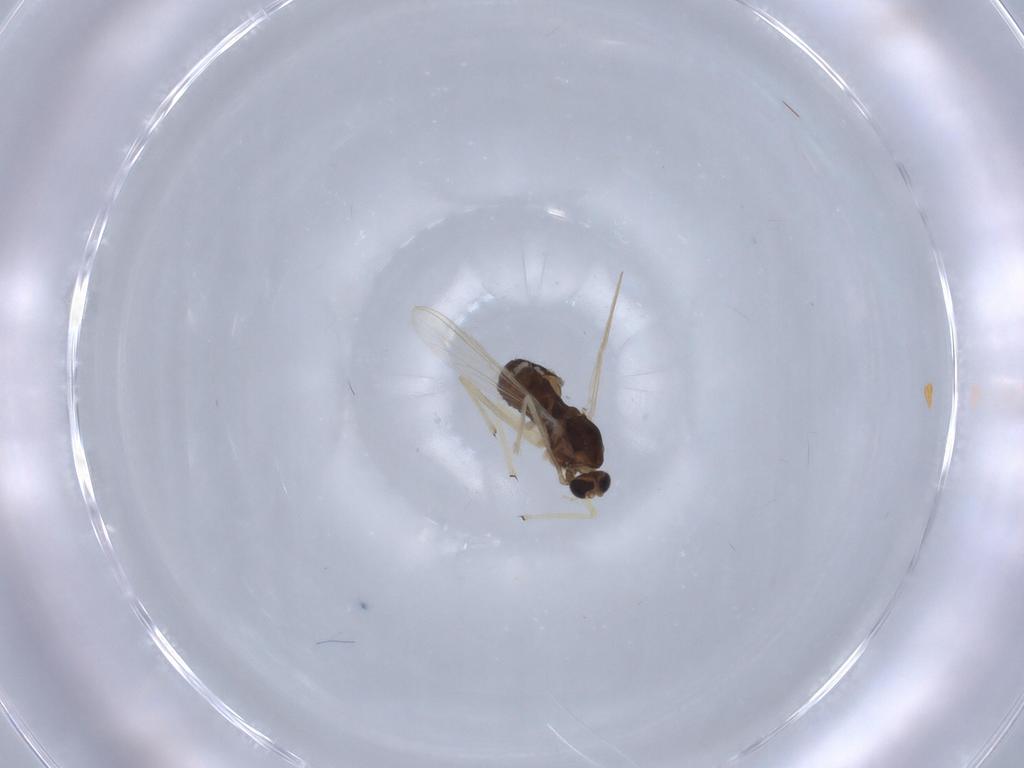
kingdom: Animalia
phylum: Arthropoda
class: Insecta
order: Diptera
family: Chironomidae
